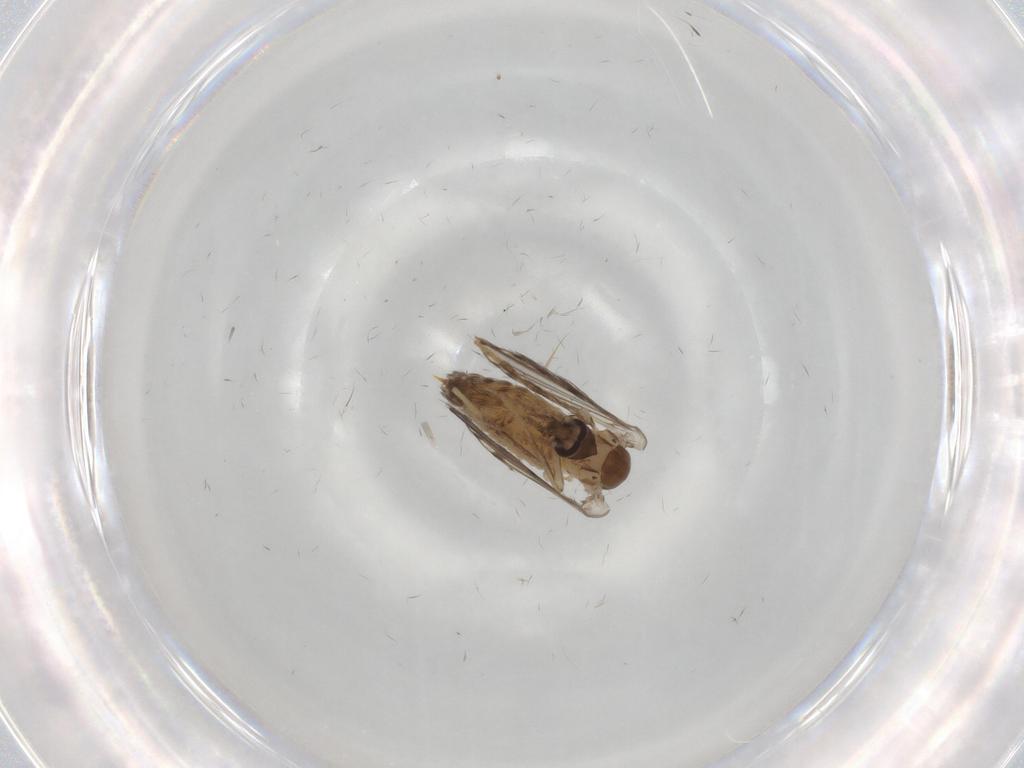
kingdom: Animalia
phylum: Arthropoda
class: Insecta
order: Diptera
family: Psychodidae
